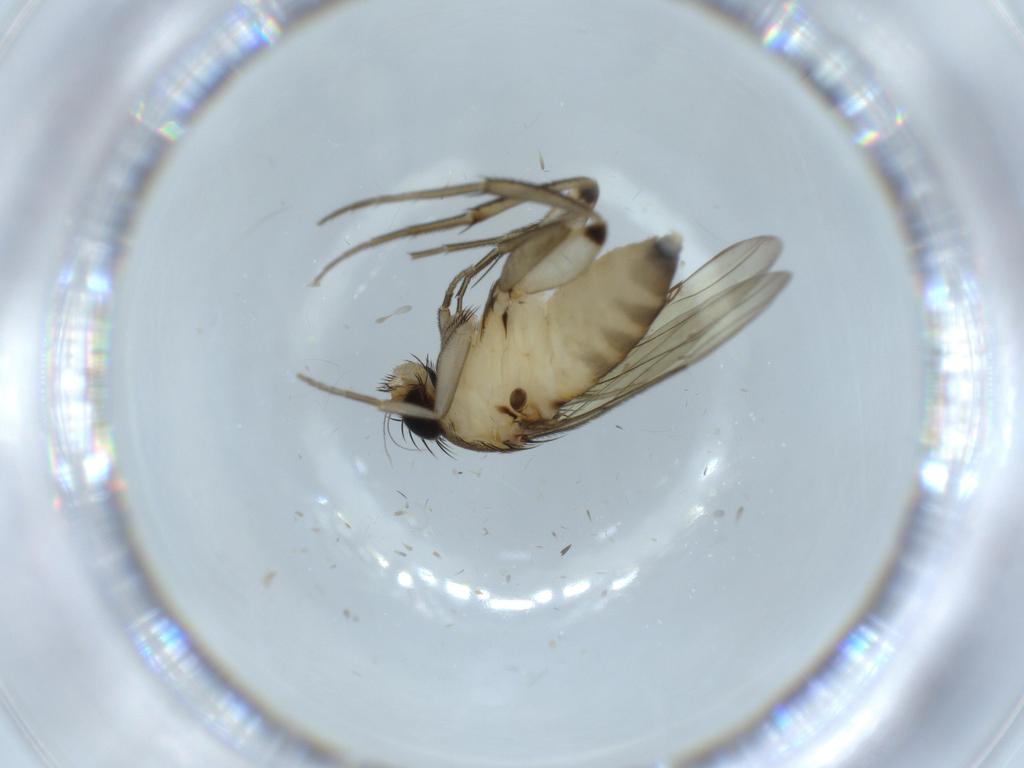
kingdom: Animalia
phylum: Arthropoda
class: Insecta
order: Diptera
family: Phoridae
